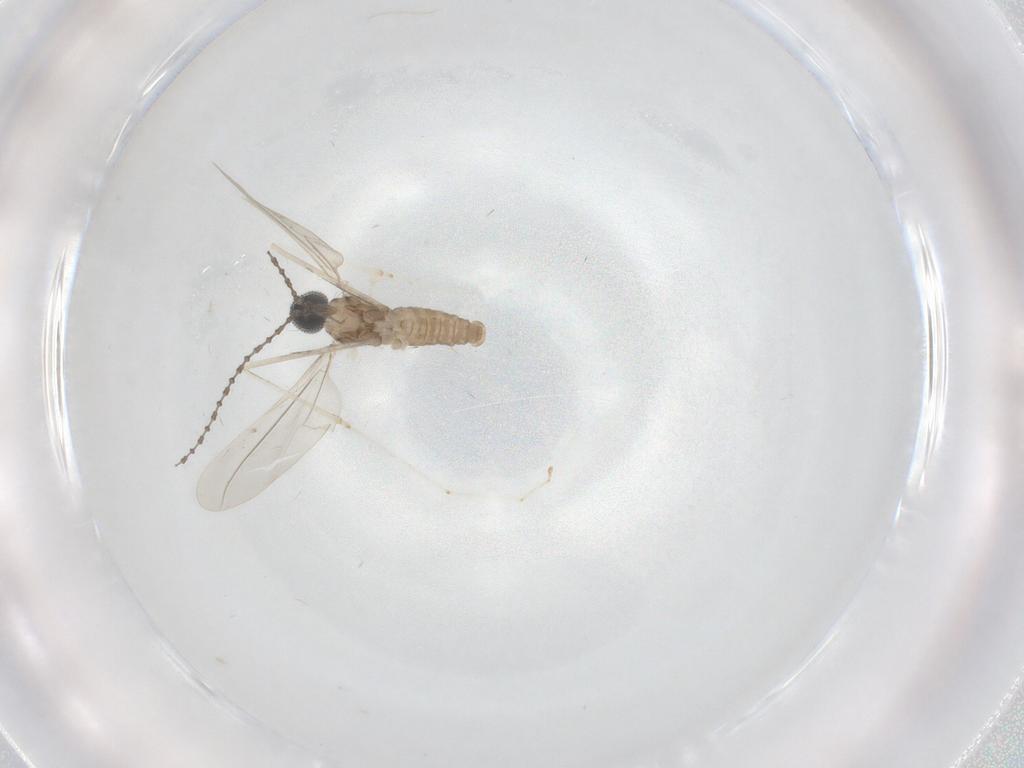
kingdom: Animalia
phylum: Arthropoda
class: Insecta
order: Diptera
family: Cecidomyiidae
